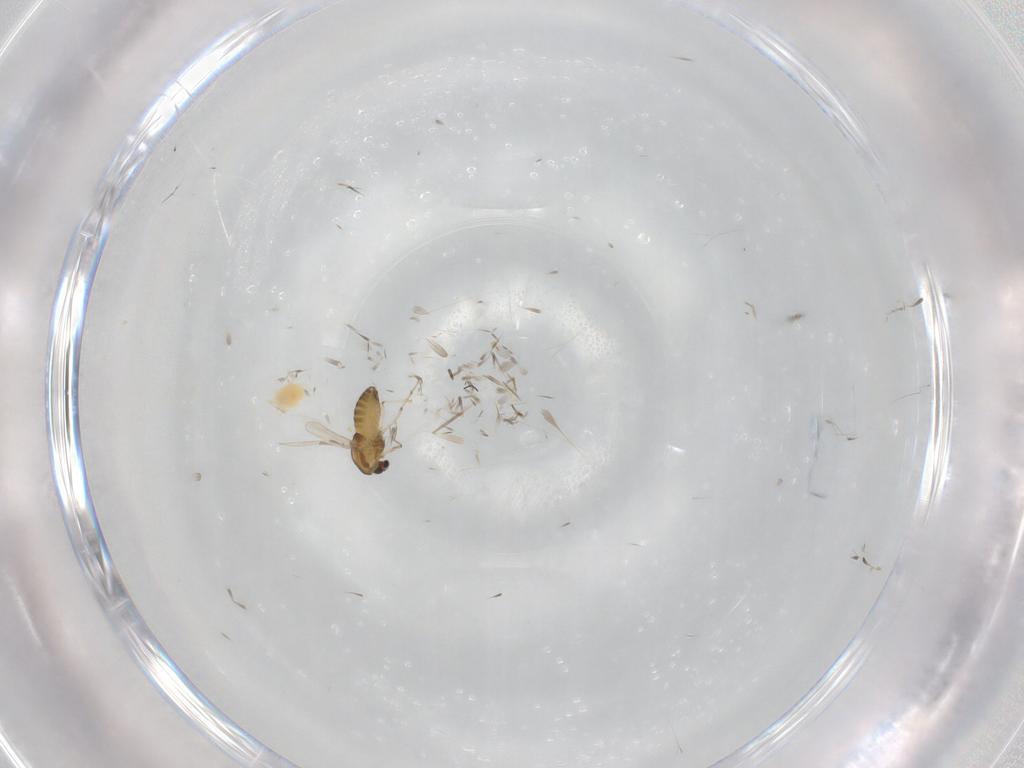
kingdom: Animalia
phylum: Arthropoda
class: Insecta
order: Diptera
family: Chironomidae
